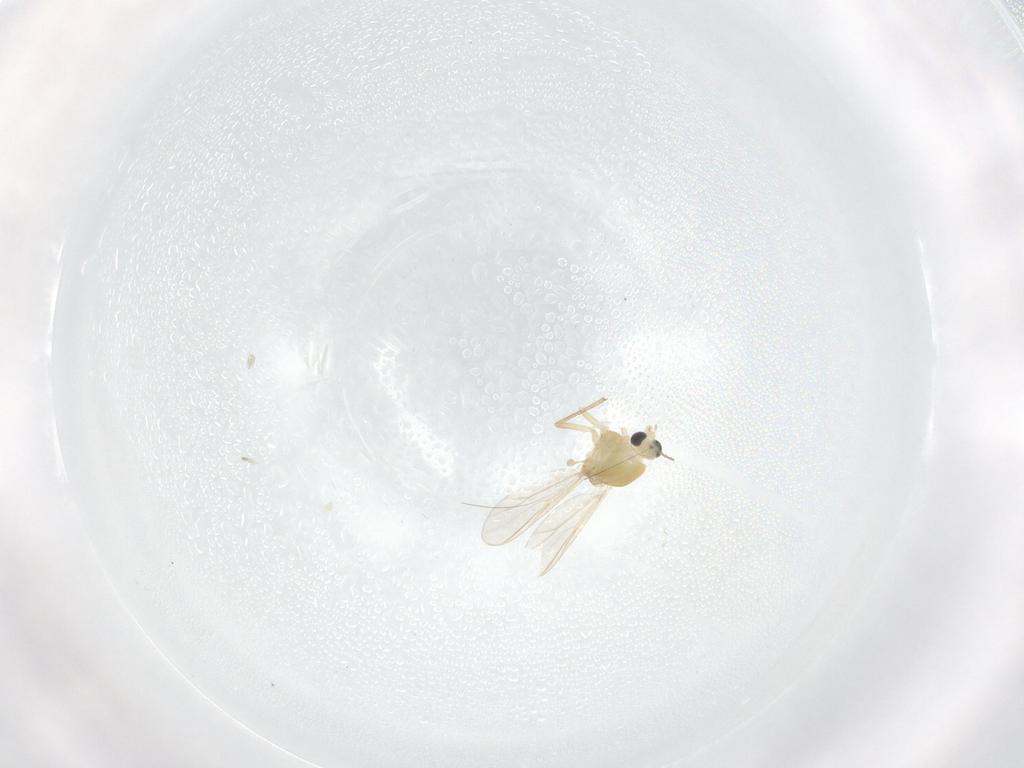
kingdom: Animalia
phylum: Arthropoda
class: Insecta
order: Diptera
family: Chironomidae
